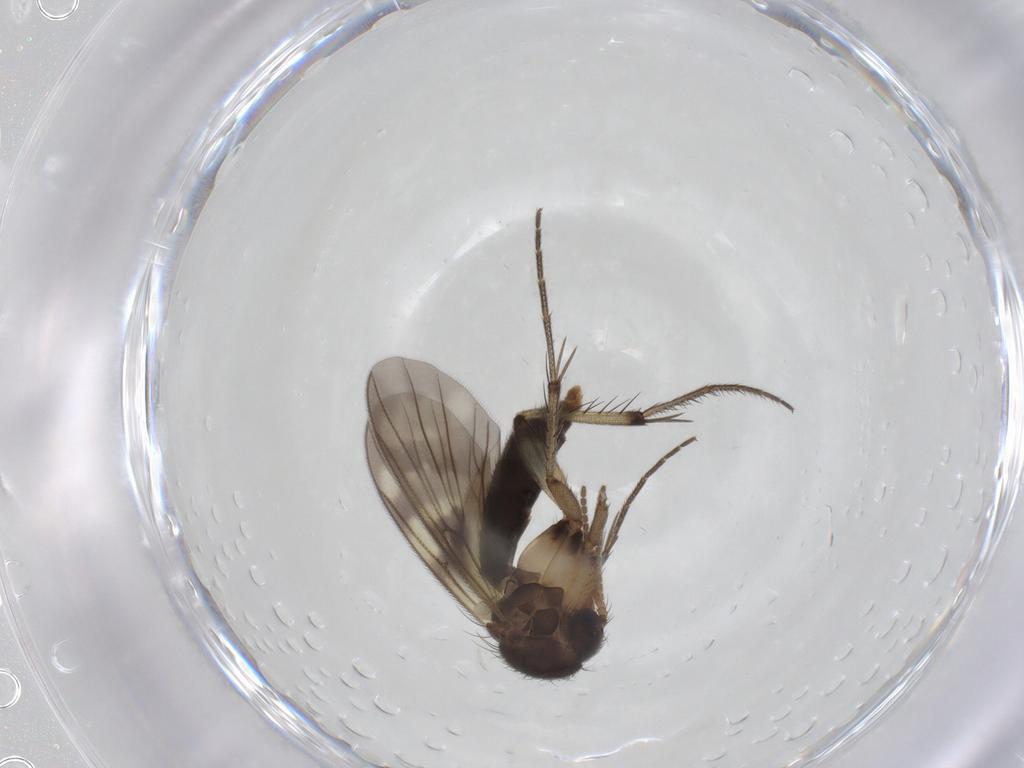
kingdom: Animalia
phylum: Arthropoda
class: Insecta
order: Diptera
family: Mycetophilidae
